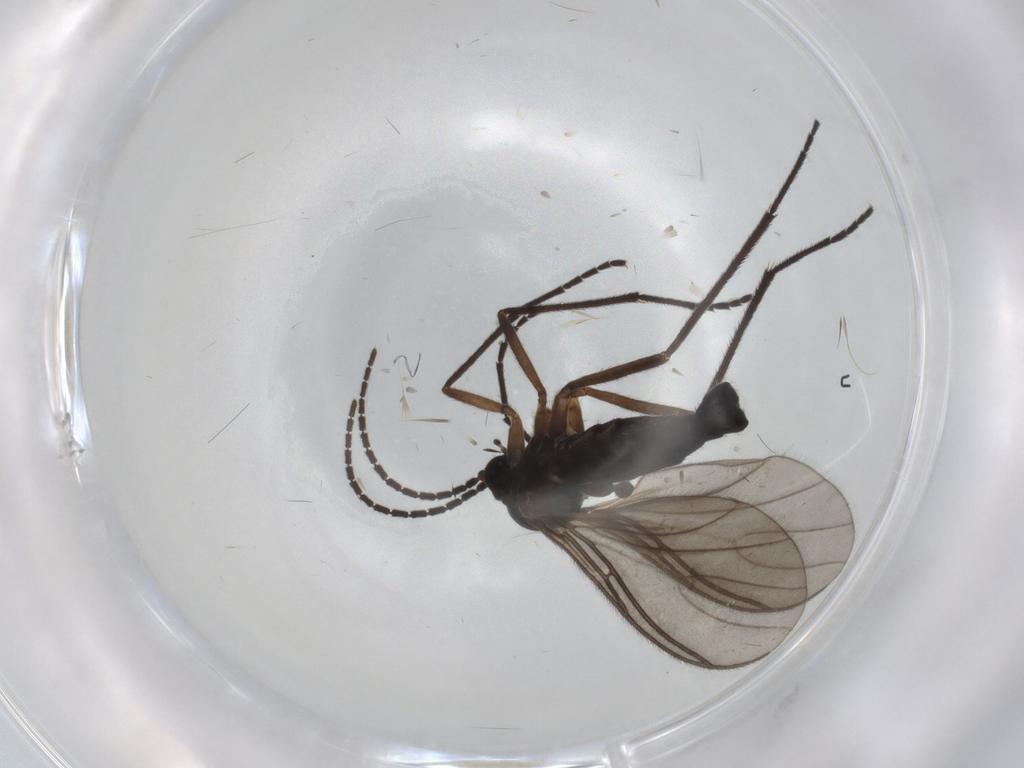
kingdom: Animalia
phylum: Arthropoda
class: Insecta
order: Diptera
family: Sciaridae
